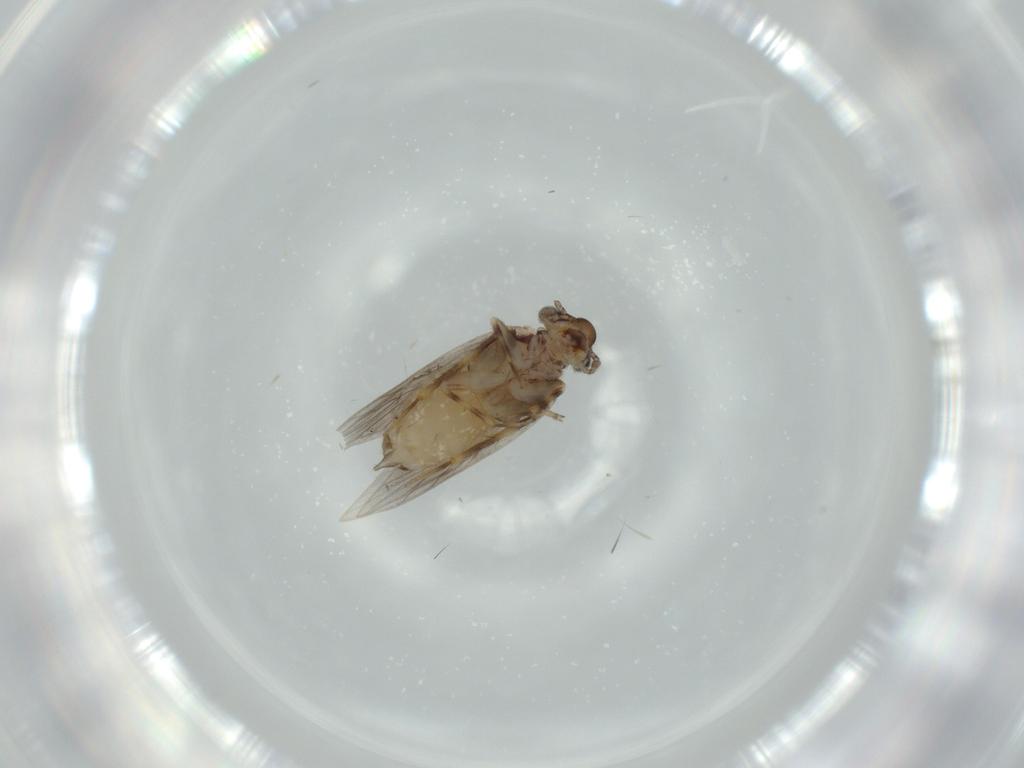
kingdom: Animalia
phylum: Arthropoda
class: Insecta
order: Psocodea
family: Lepidopsocidae
